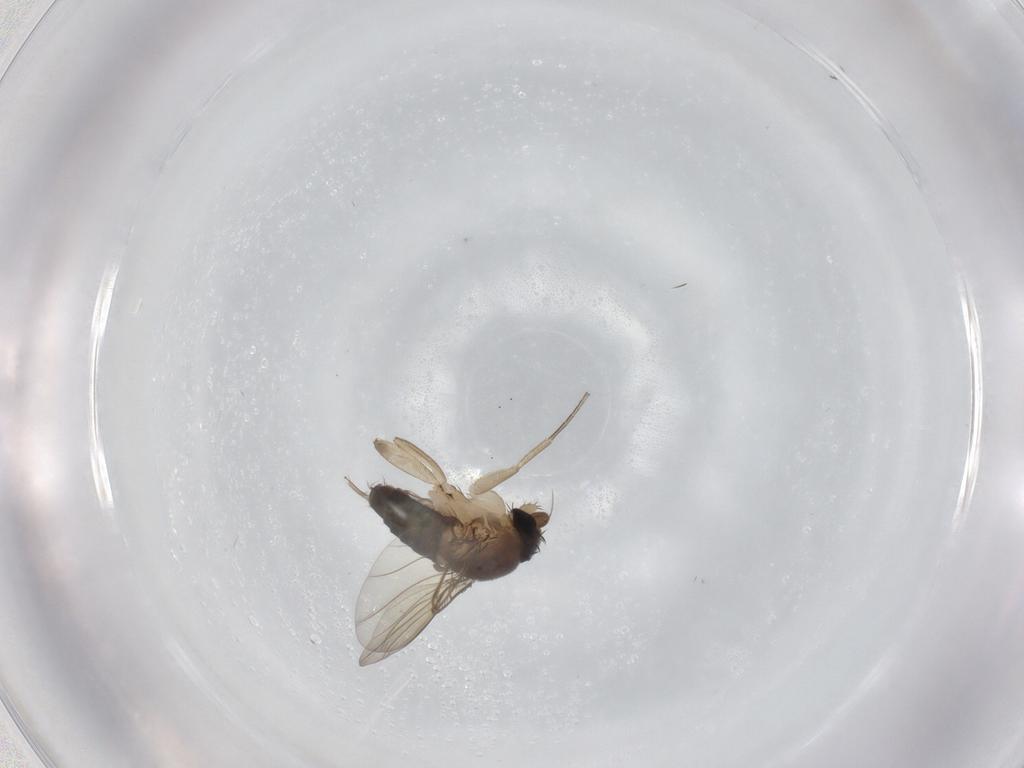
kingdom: Animalia
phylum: Arthropoda
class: Insecta
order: Diptera
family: Phoridae
